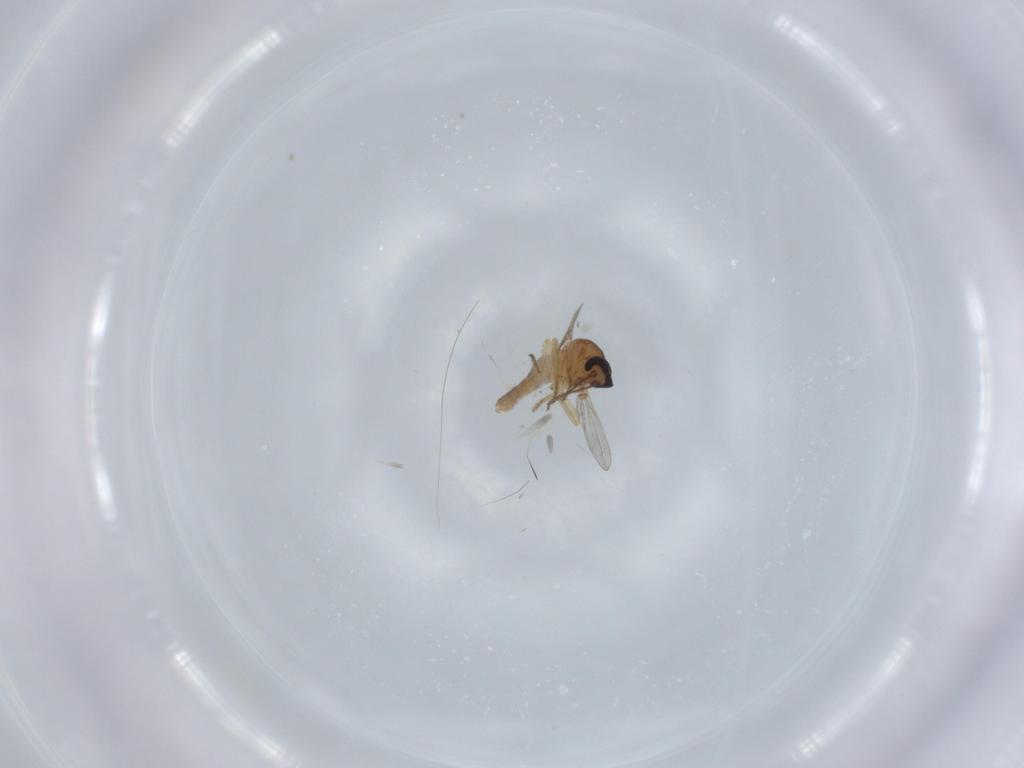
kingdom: Animalia
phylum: Arthropoda
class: Insecta
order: Diptera
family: Ceratopogonidae
